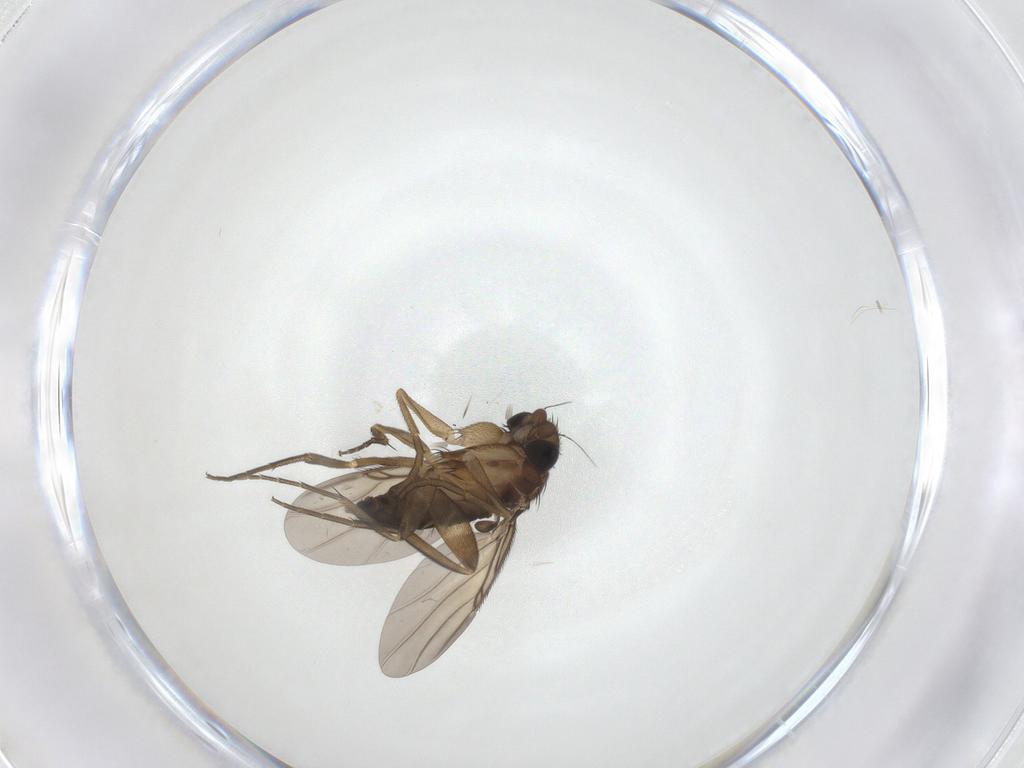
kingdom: Animalia
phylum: Arthropoda
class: Insecta
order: Diptera
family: Phoridae
